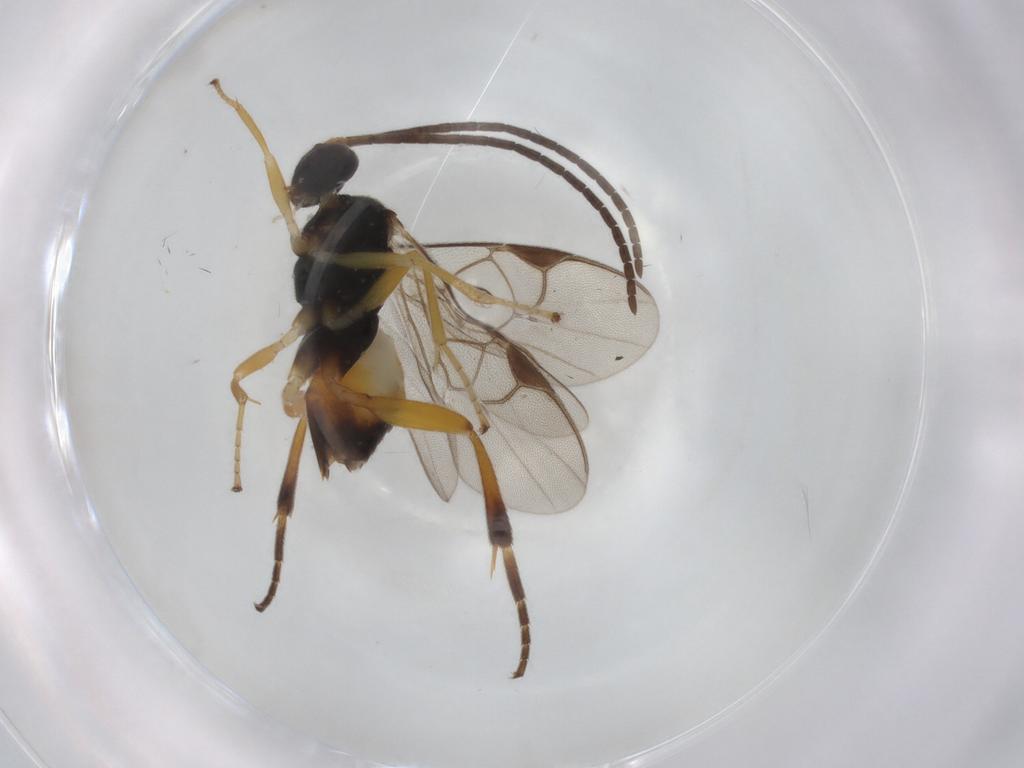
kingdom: Animalia
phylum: Arthropoda
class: Insecta
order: Hymenoptera
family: Braconidae
